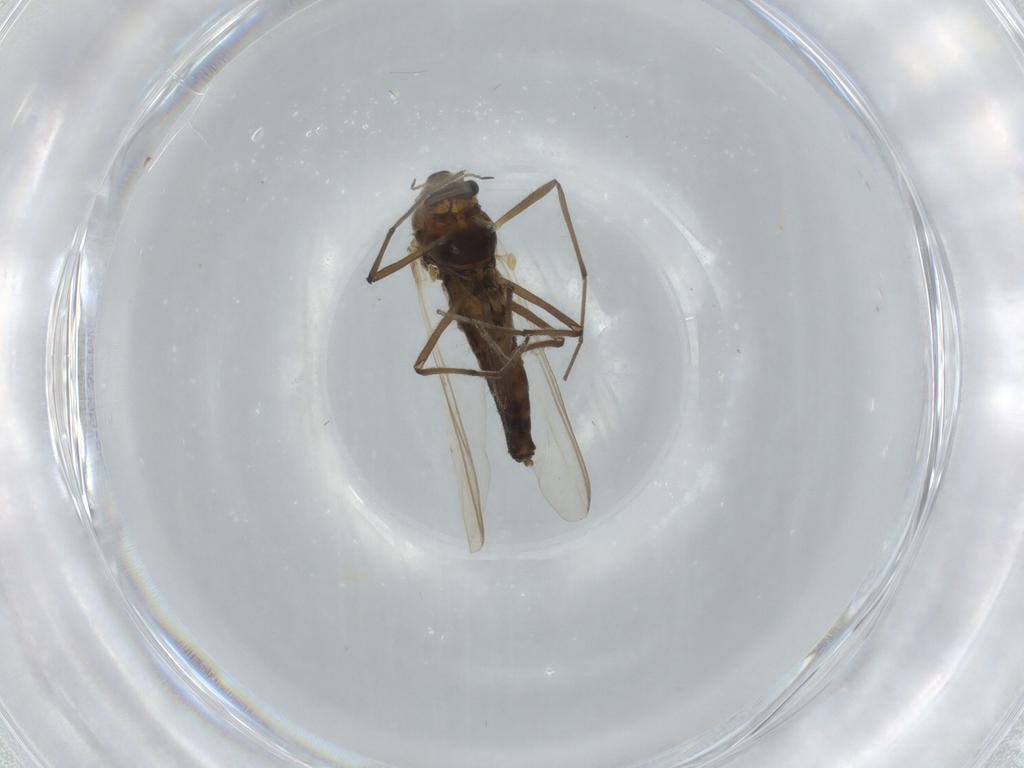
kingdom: Animalia
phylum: Arthropoda
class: Insecta
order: Diptera
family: Chironomidae
